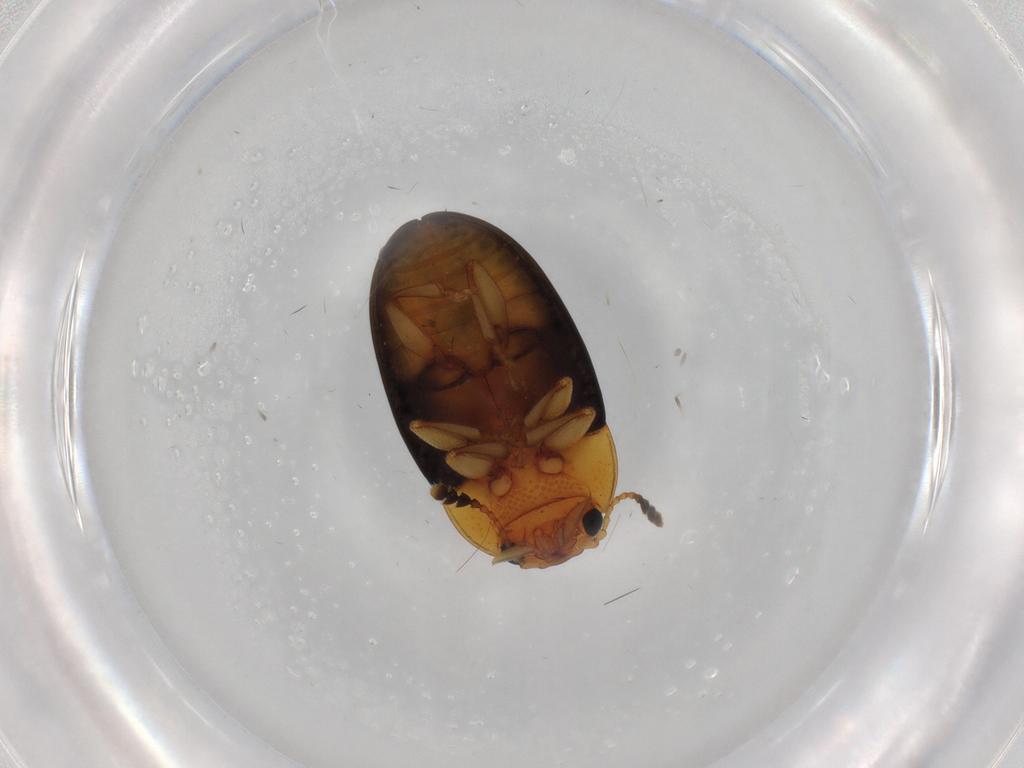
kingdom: Animalia
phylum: Arthropoda
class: Insecta
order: Coleoptera
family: Erotylidae
